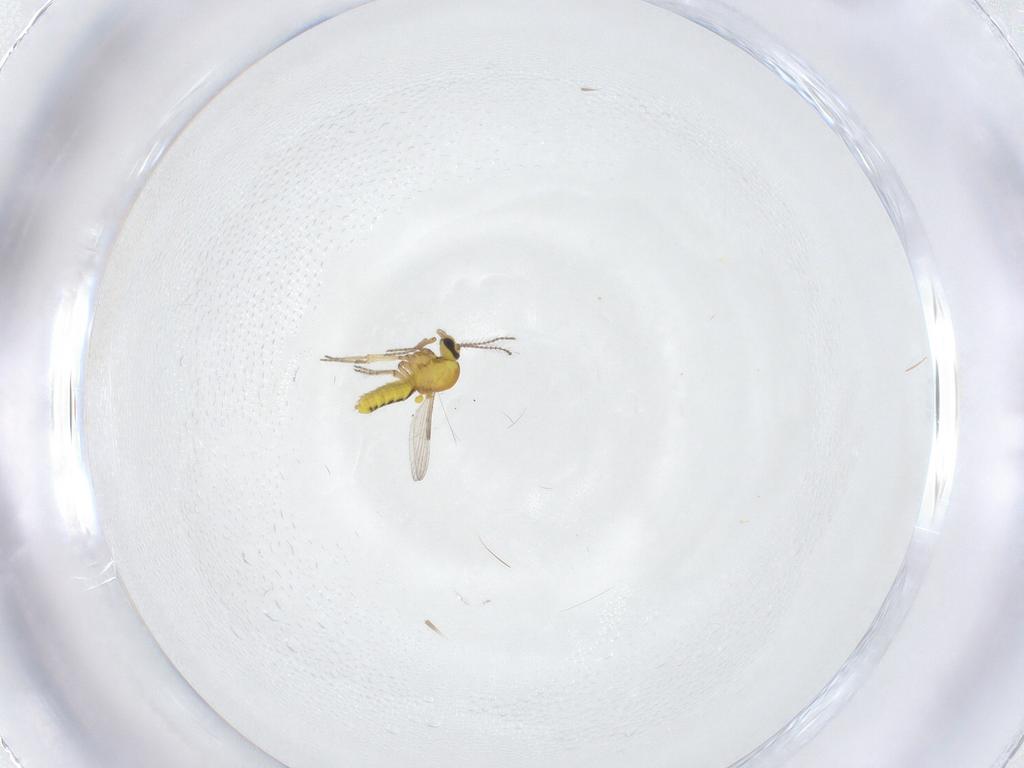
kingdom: Animalia
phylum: Arthropoda
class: Insecta
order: Diptera
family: Ceratopogonidae
